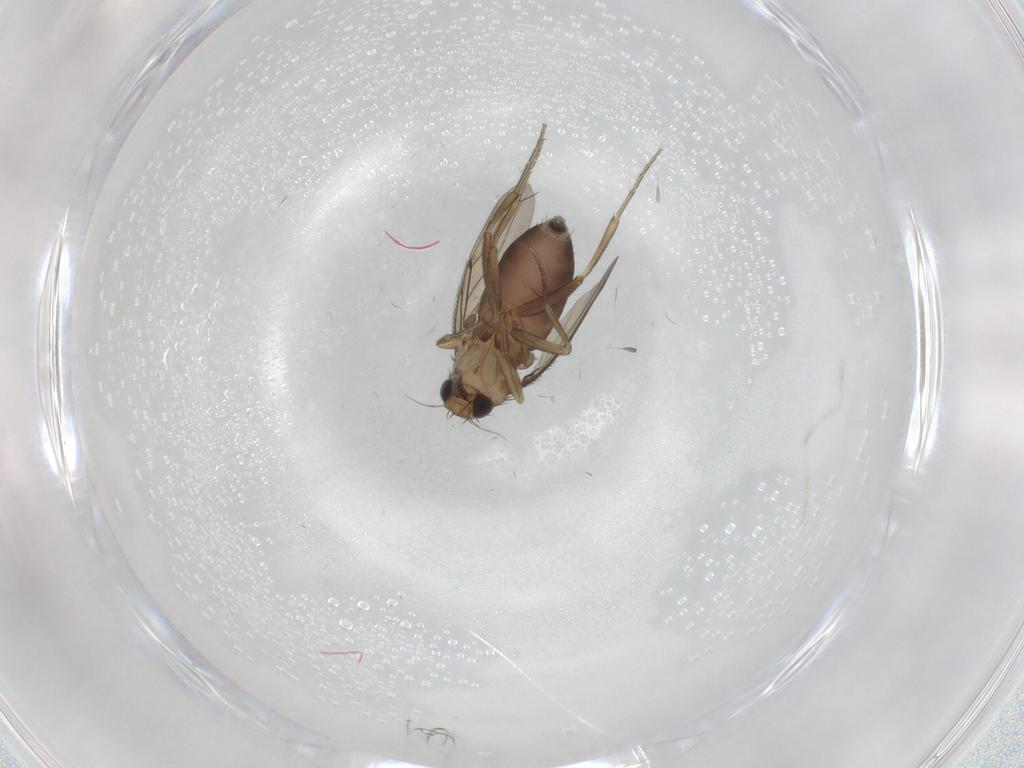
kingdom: Animalia
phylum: Arthropoda
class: Insecta
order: Diptera
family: Phoridae
